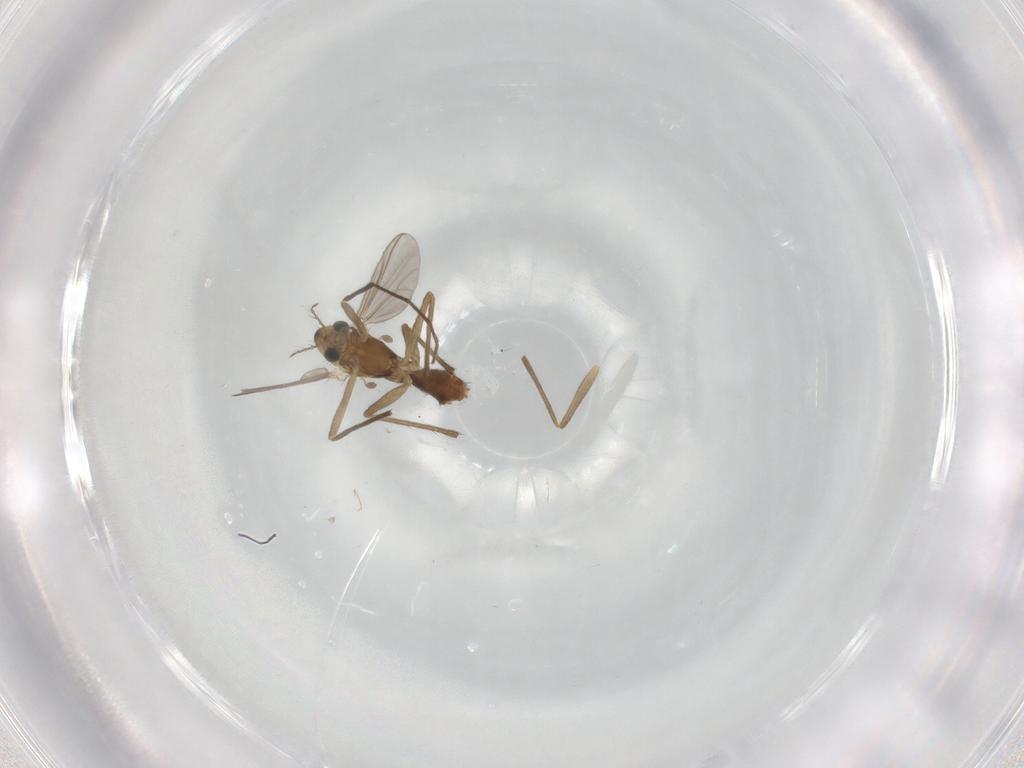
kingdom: Animalia
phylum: Arthropoda
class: Insecta
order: Diptera
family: Chironomidae
